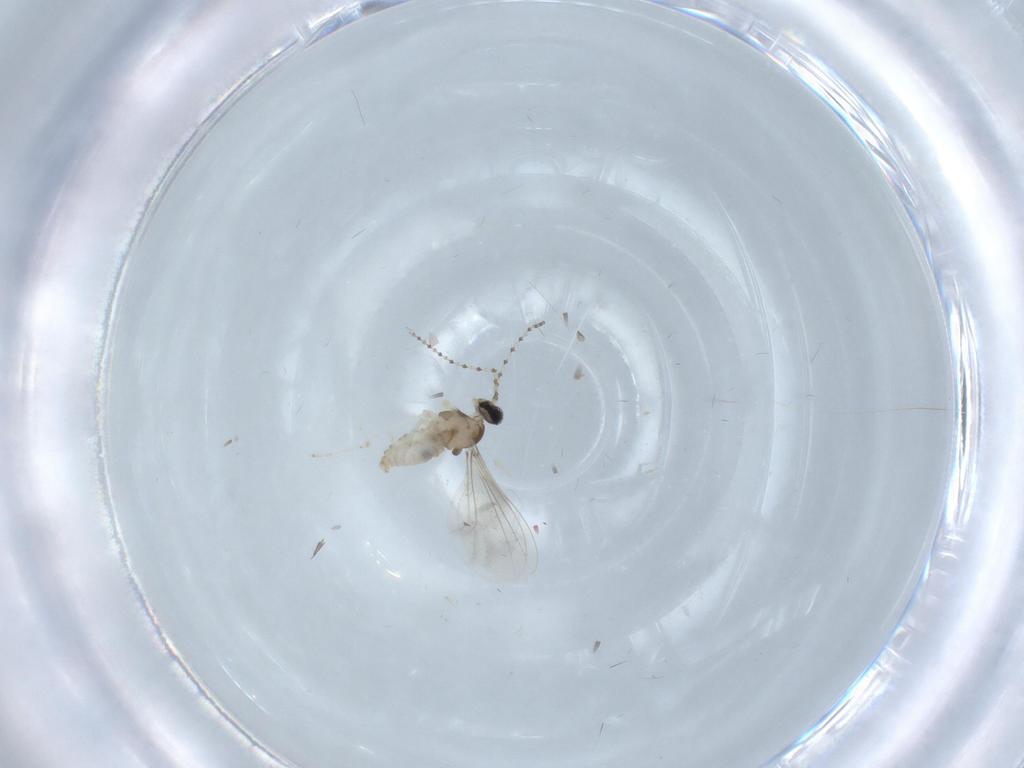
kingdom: Animalia
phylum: Arthropoda
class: Insecta
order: Diptera
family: Cecidomyiidae
